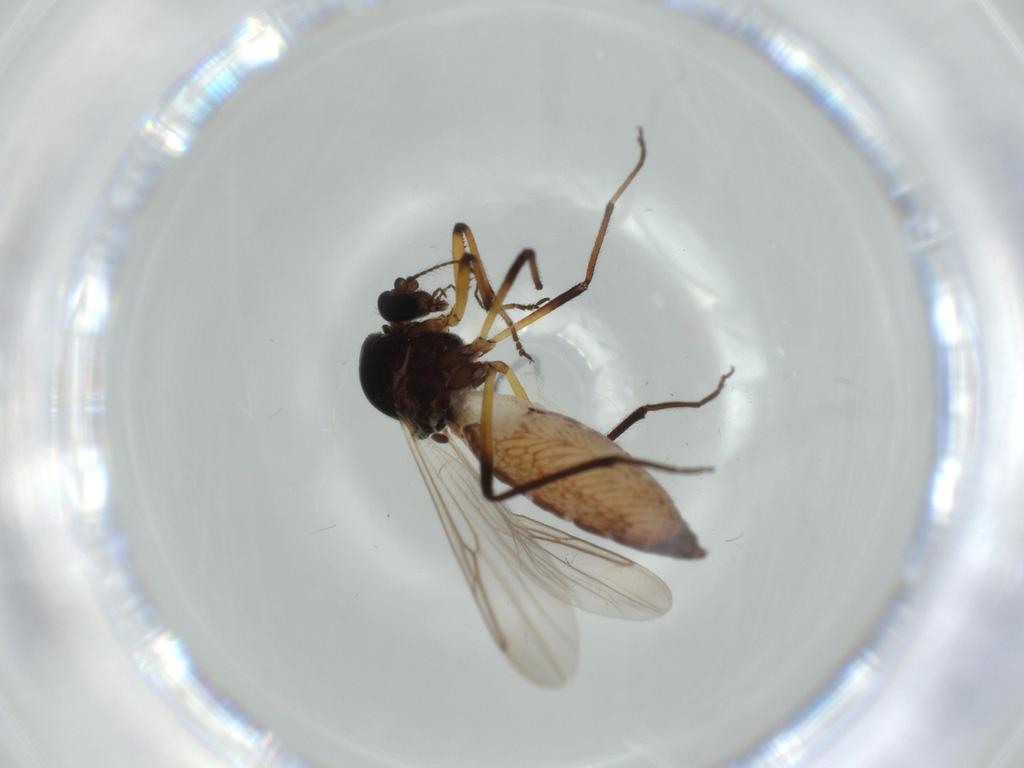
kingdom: Animalia
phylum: Arthropoda
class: Insecta
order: Diptera
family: Ceratopogonidae
